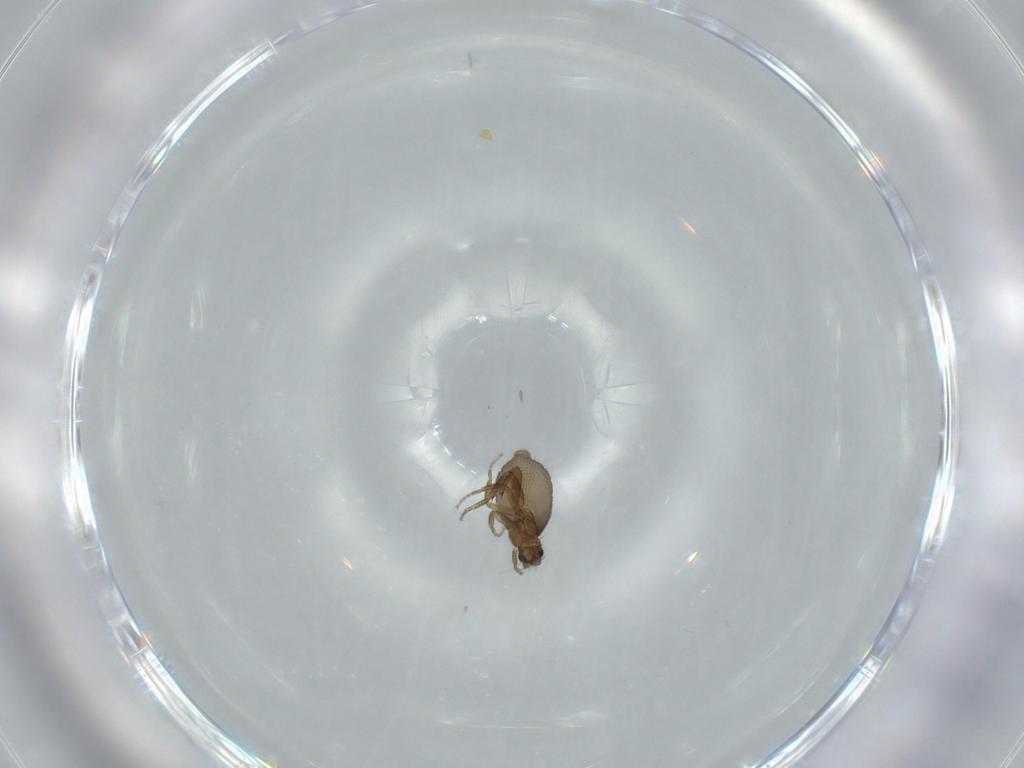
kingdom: Animalia
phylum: Arthropoda
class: Insecta
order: Diptera
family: Phoridae
